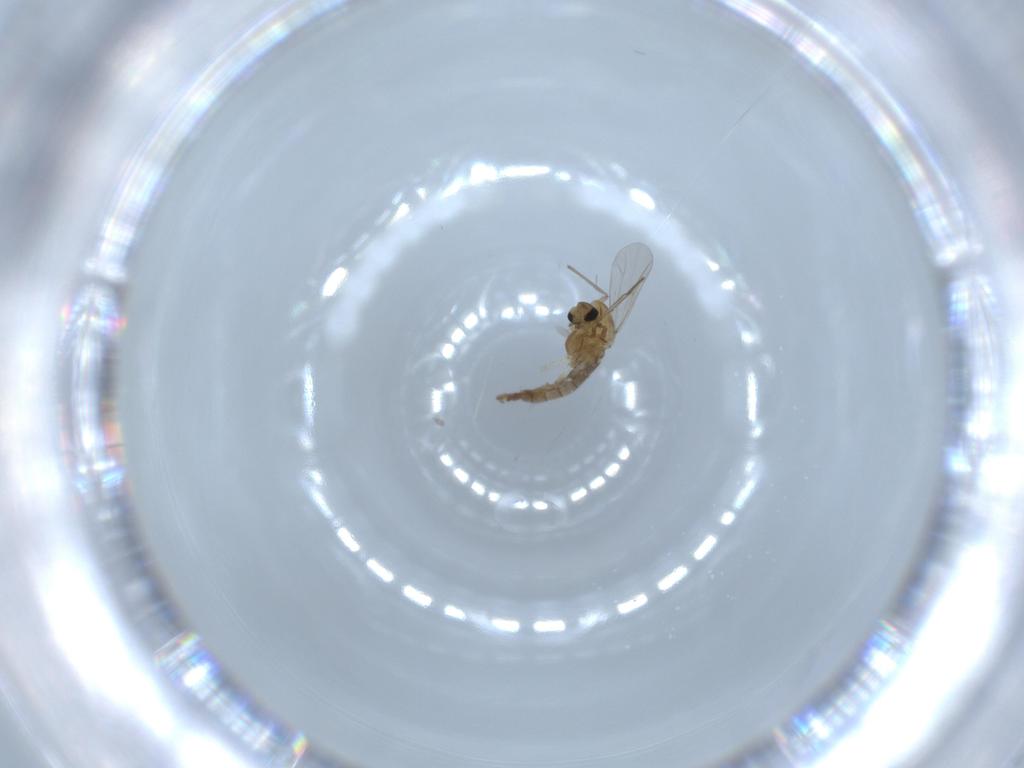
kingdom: Animalia
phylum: Arthropoda
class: Insecta
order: Diptera
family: Chironomidae
